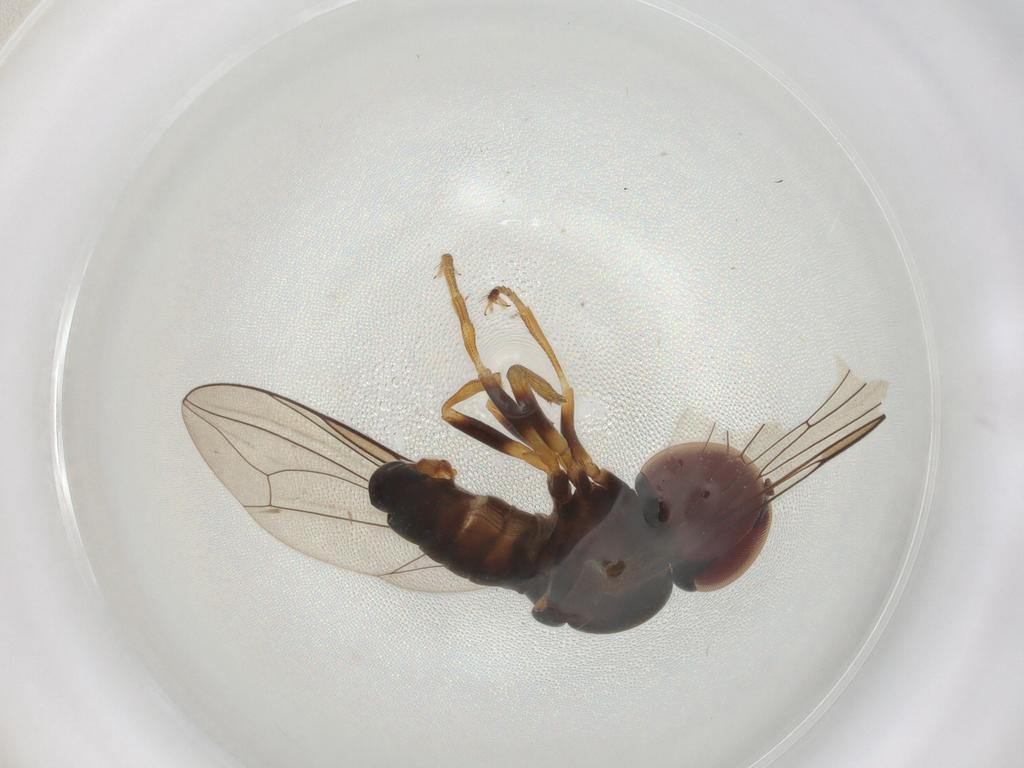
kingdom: Animalia
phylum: Arthropoda
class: Insecta
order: Diptera
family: Pipunculidae
